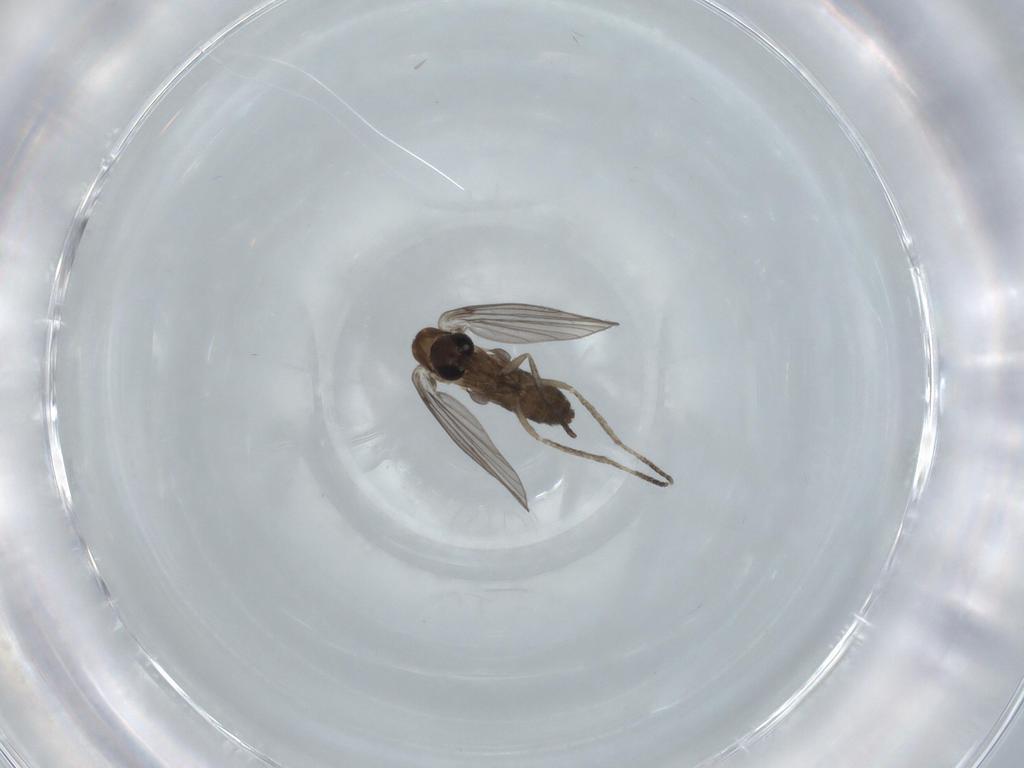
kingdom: Animalia
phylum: Arthropoda
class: Insecta
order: Diptera
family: Psychodidae
